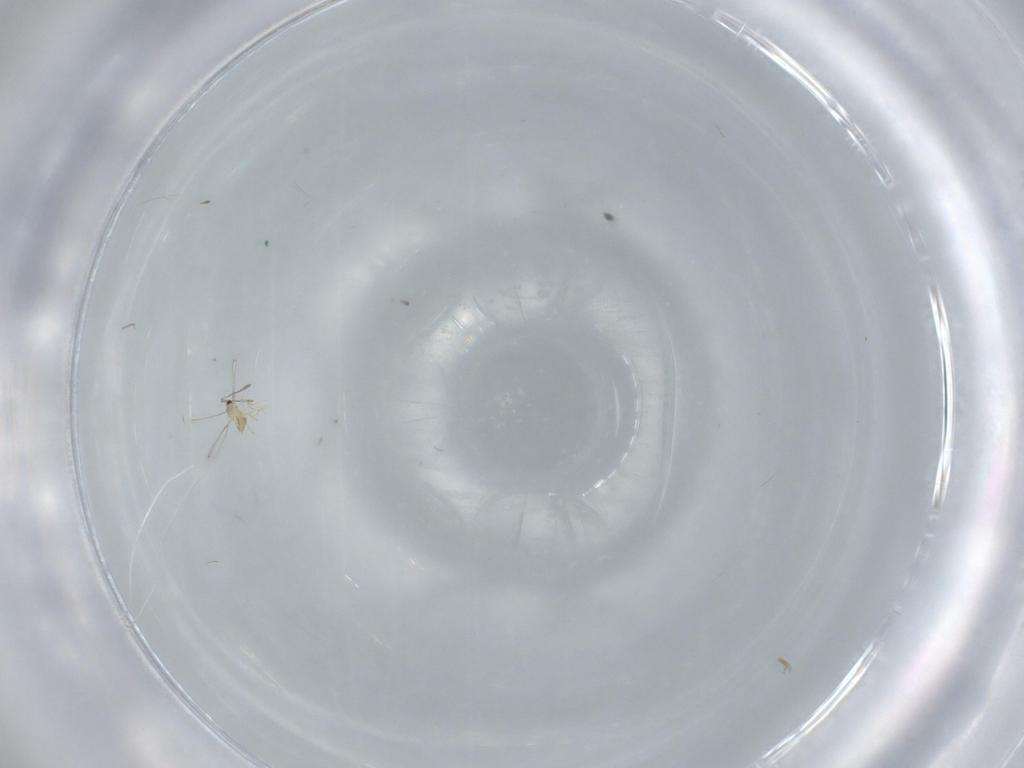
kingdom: Animalia
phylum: Arthropoda
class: Insecta
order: Hymenoptera
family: Mymaridae
